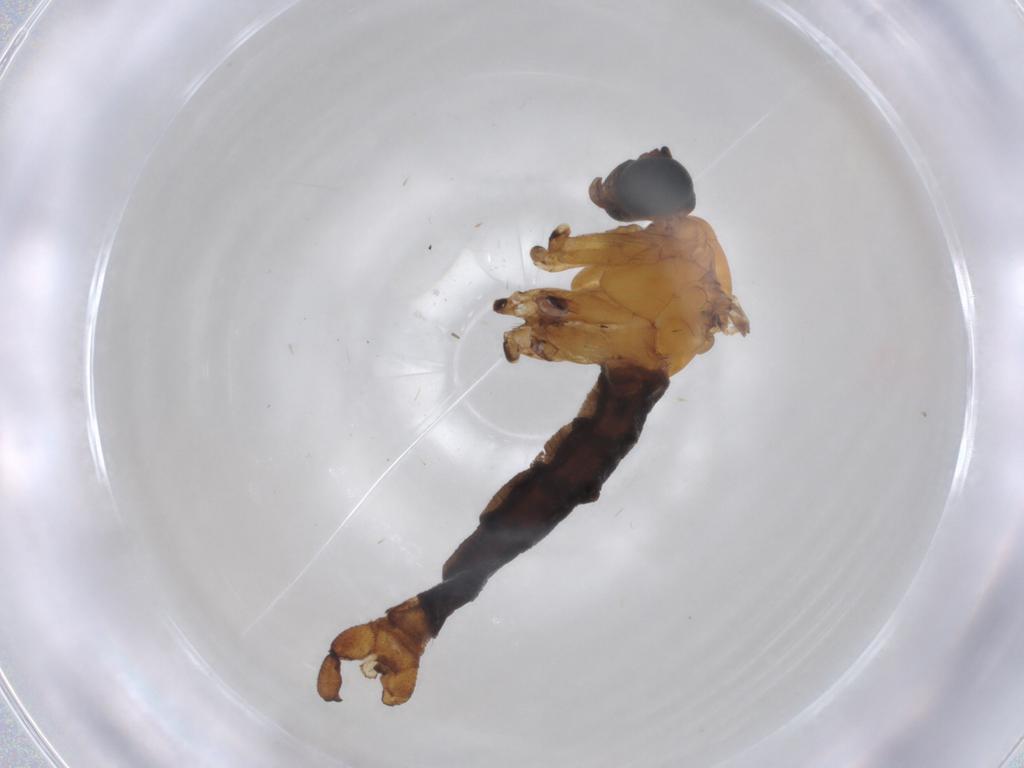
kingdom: Animalia
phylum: Arthropoda
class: Insecta
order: Diptera
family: Sciaridae
